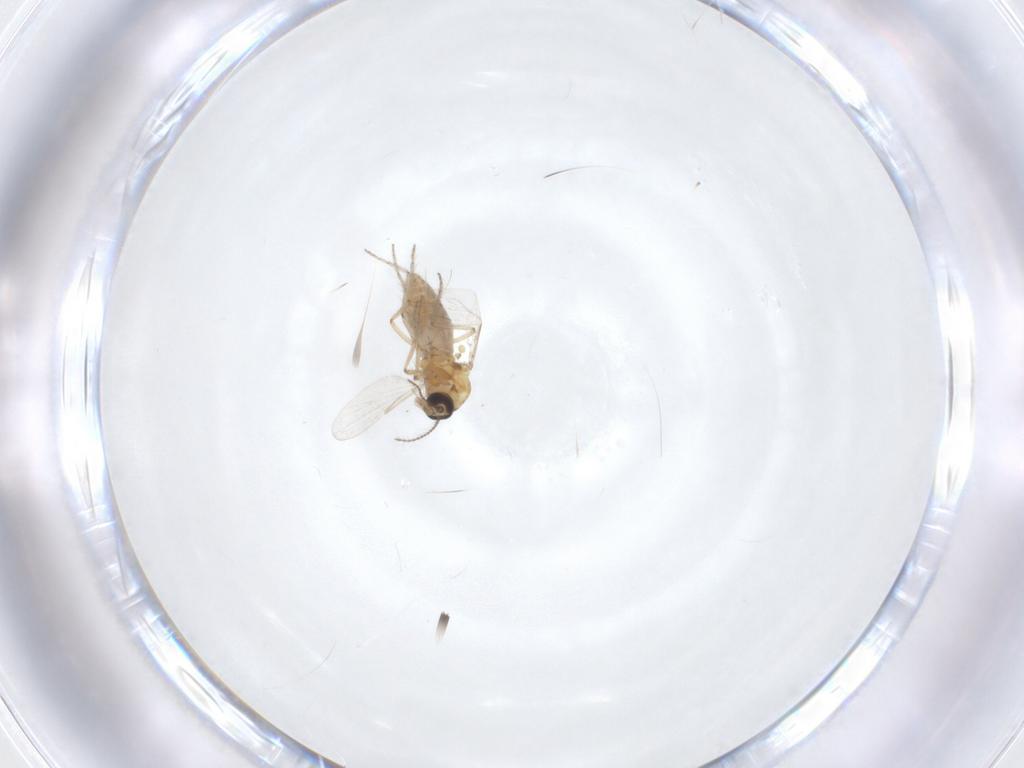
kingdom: Animalia
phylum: Arthropoda
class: Insecta
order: Diptera
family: Ceratopogonidae
